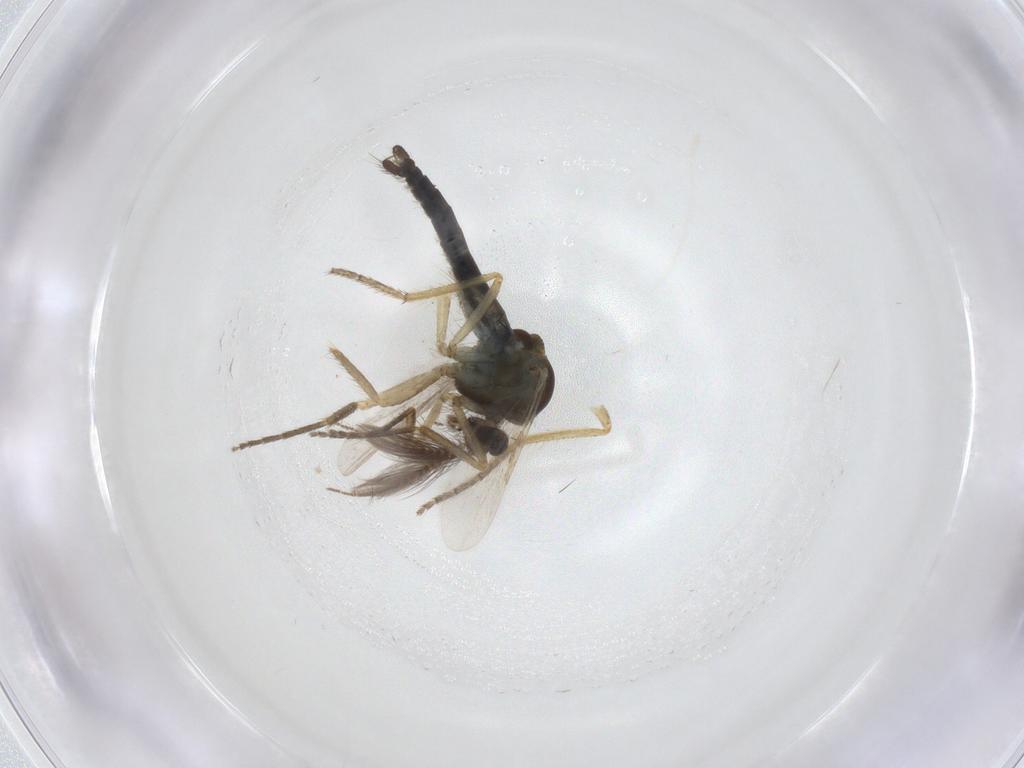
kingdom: Animalia
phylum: Arthropoda
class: Insecta
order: Diptera
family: Ceratopogonidae
